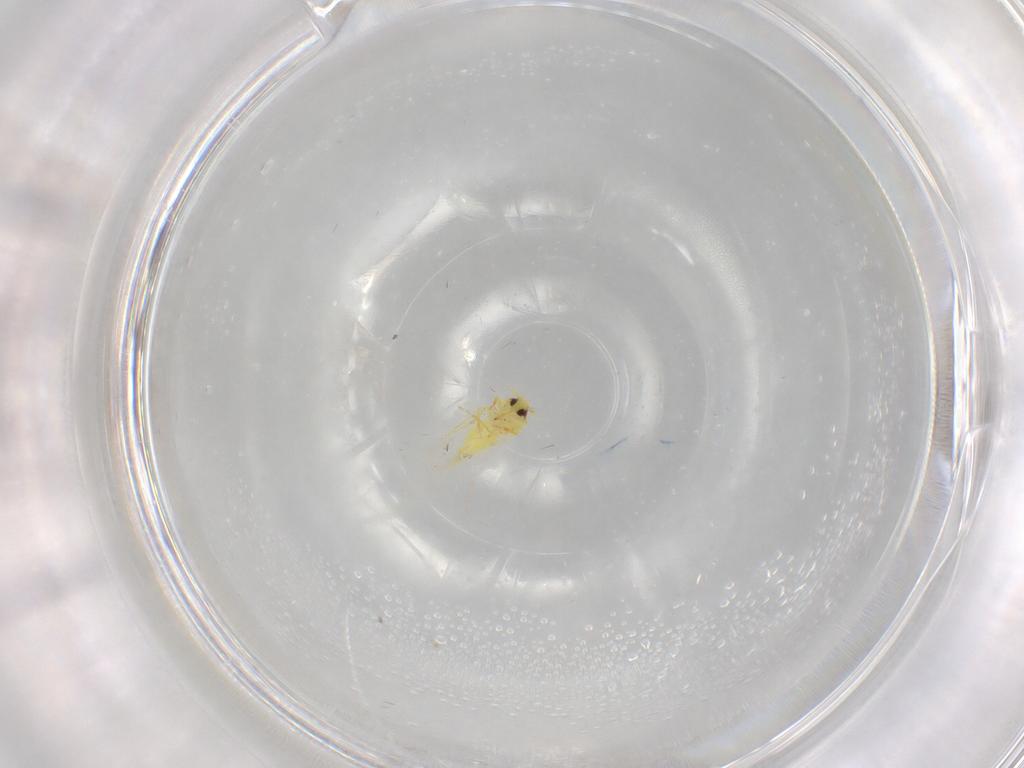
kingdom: Animalia
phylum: Arthropoda
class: Insecta
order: Hemiptera
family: Aleyrodidae
